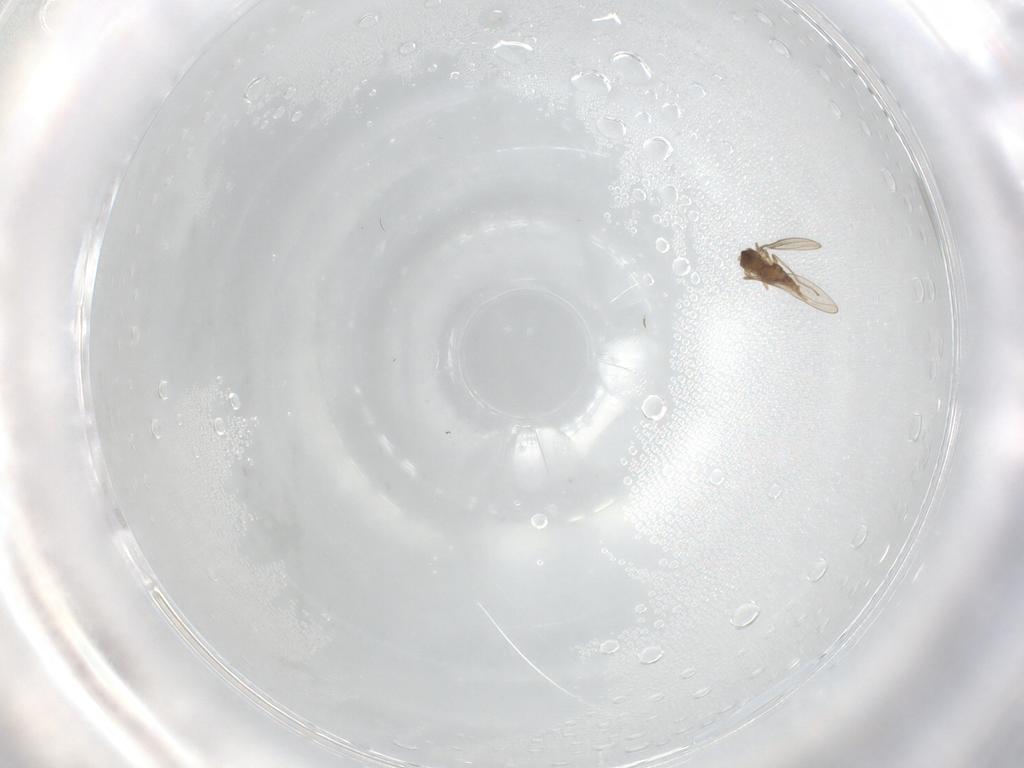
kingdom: Animalia
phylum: Arthropoda
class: Insecta
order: Diptera
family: Cecidomyiidae
